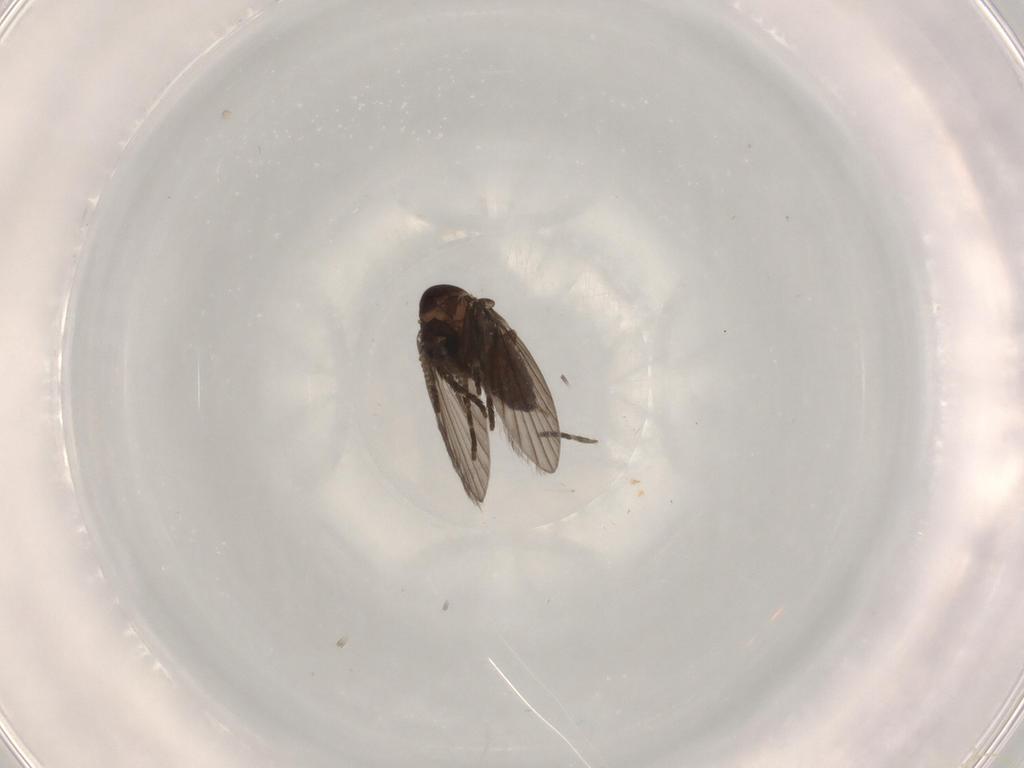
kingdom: Animalia
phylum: Arthropoda
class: Insecta
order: Diptera
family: Psychodidae
